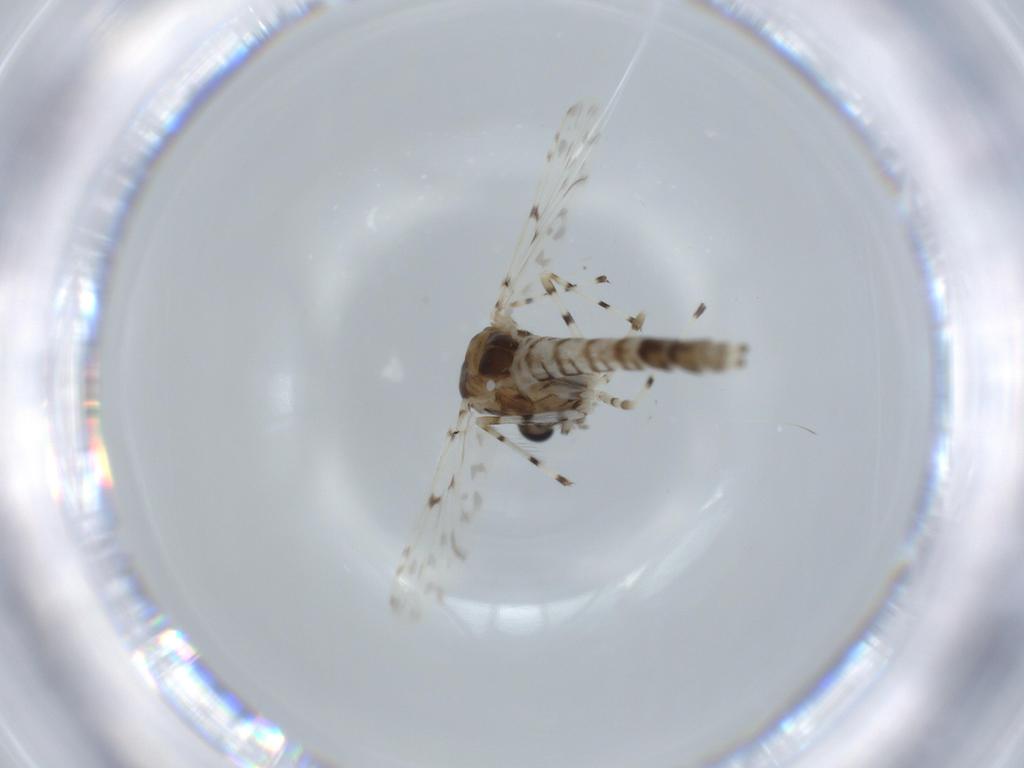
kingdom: Animalia
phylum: Arthropoda
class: Insecta
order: Diptera
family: Chironomidae
